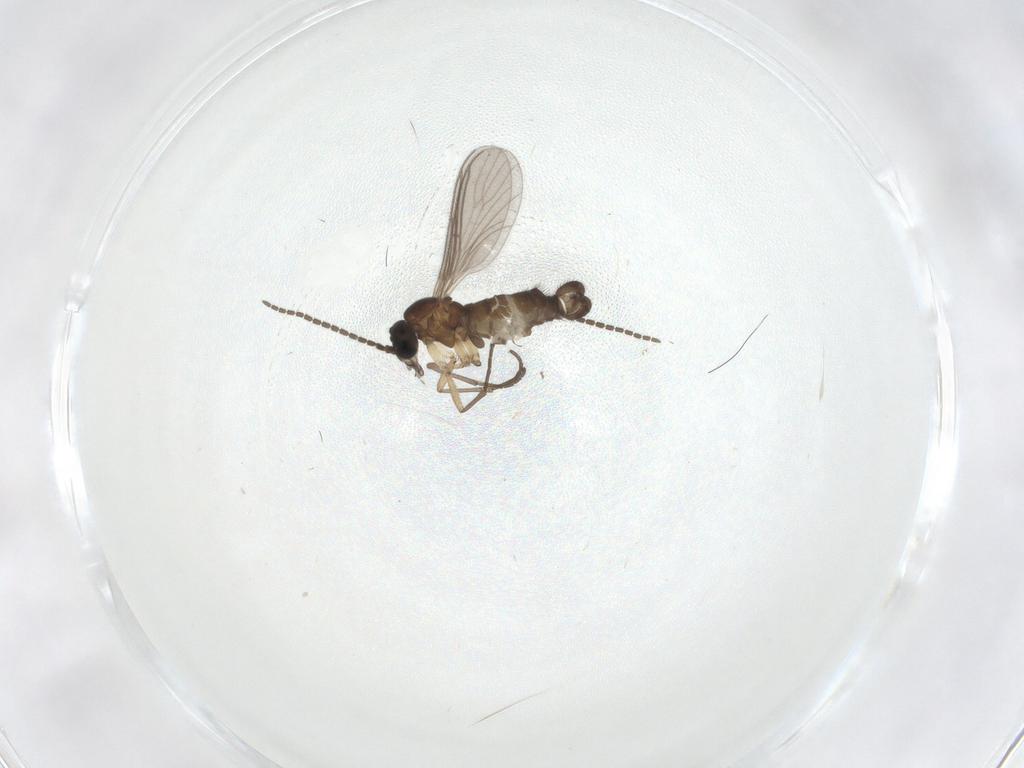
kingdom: Animalia
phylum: Arthropoda
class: Insecta
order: Diptera
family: Sciaridae
